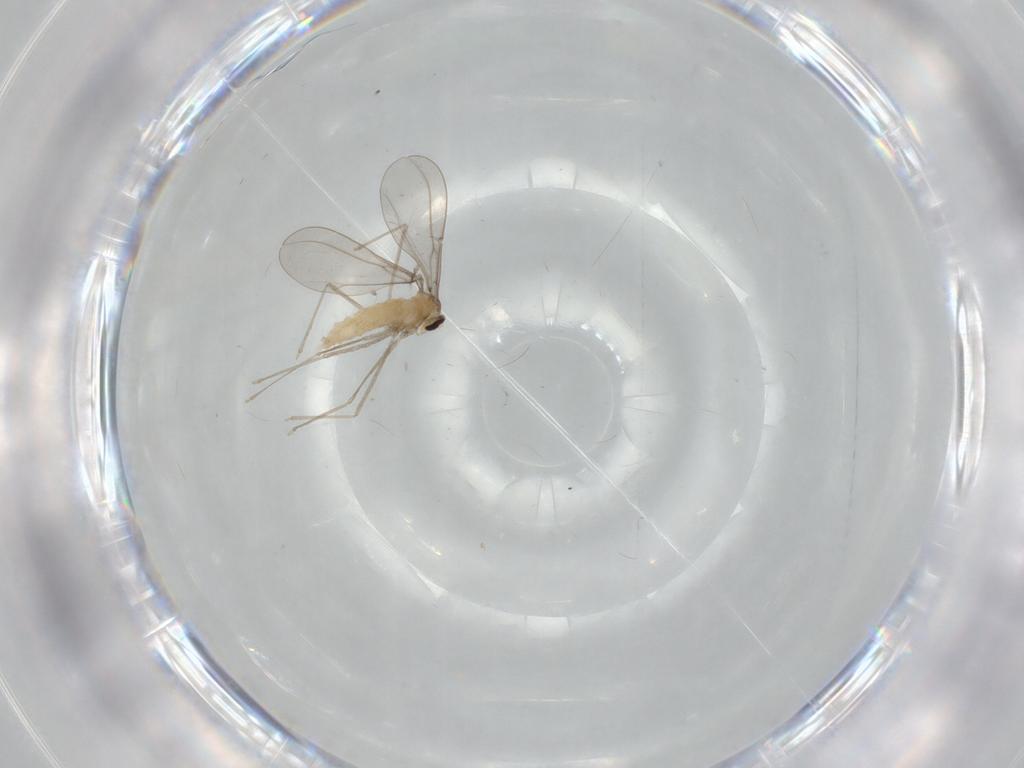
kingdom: Animalia
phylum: Arthropoda
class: Insecta
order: Diptera
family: Cecidomyiidae
